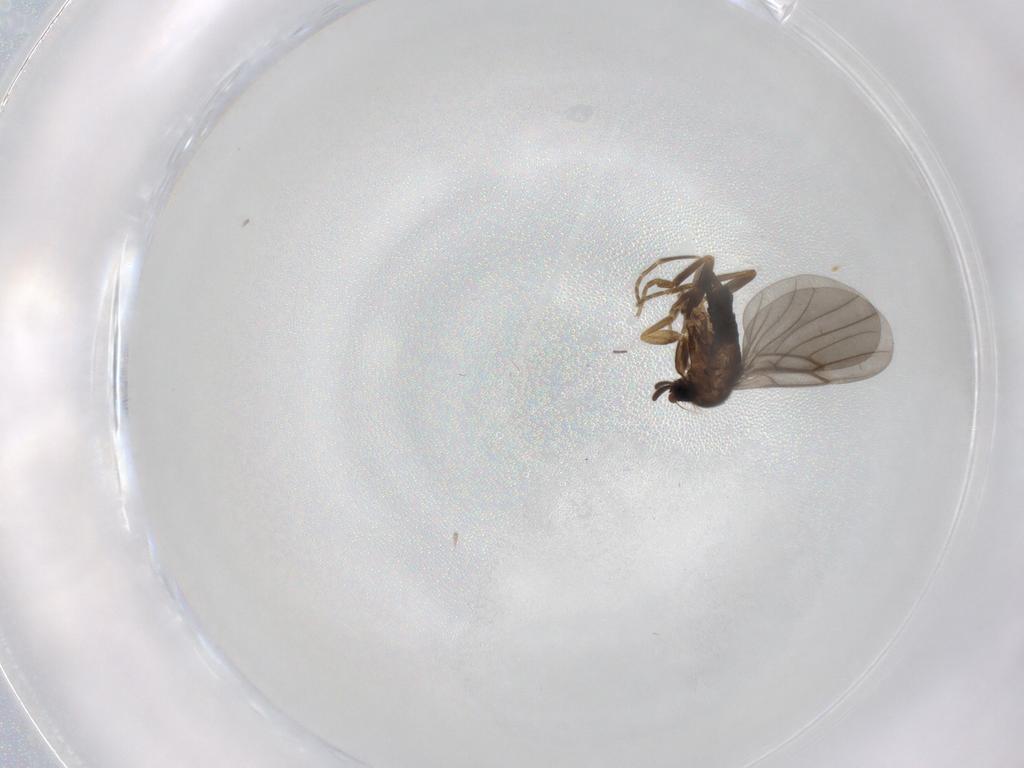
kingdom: Animalia
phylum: Arthropoda
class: Insecta
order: Diptera
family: Phoridae
